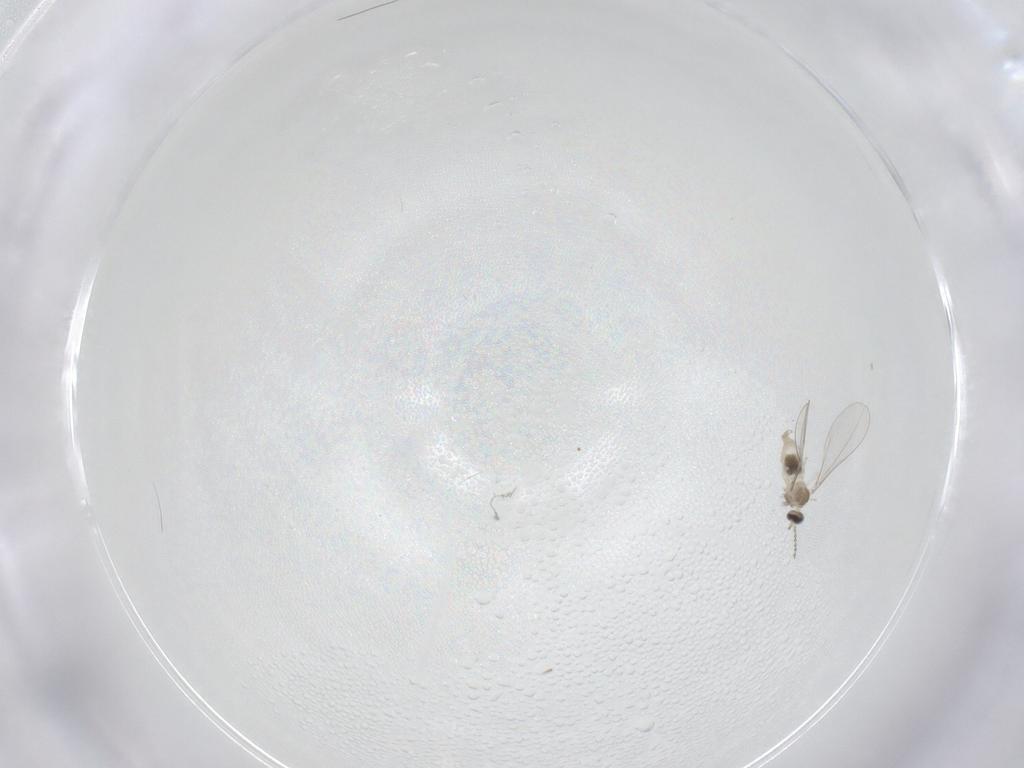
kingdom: Animalia
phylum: Arthropoda
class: Insecta
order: Diptera
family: Cecidomyiidae
